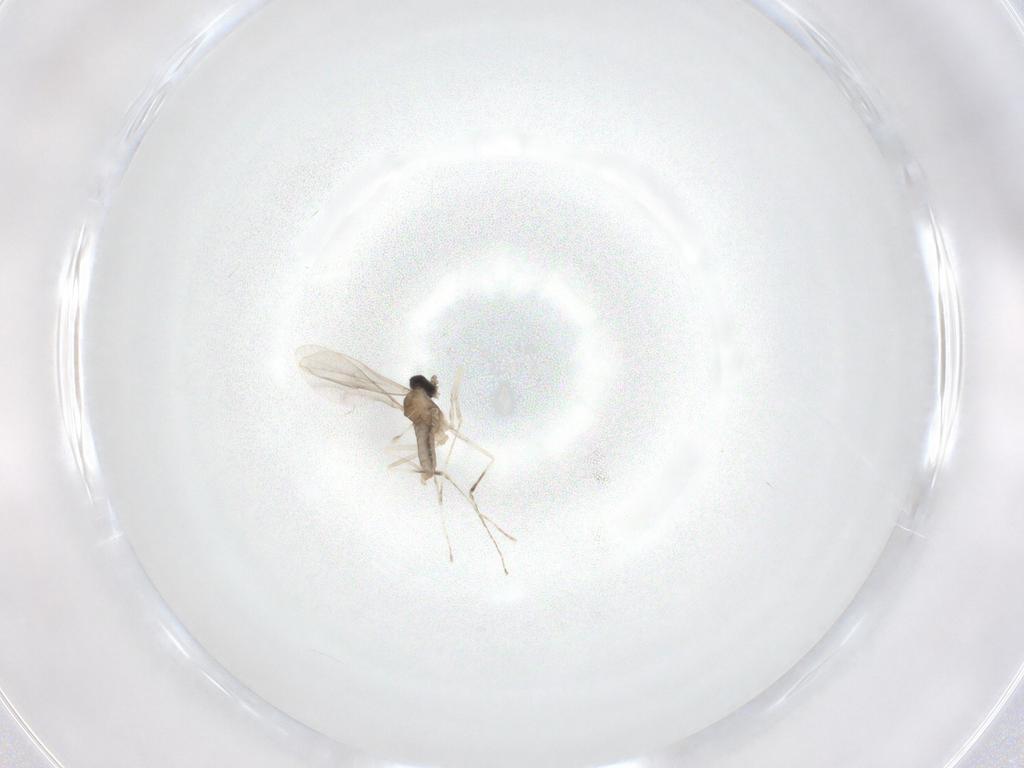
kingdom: Animalia
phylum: Arthropoda
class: Insecta
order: Diptera
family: Cecidomyiidae
